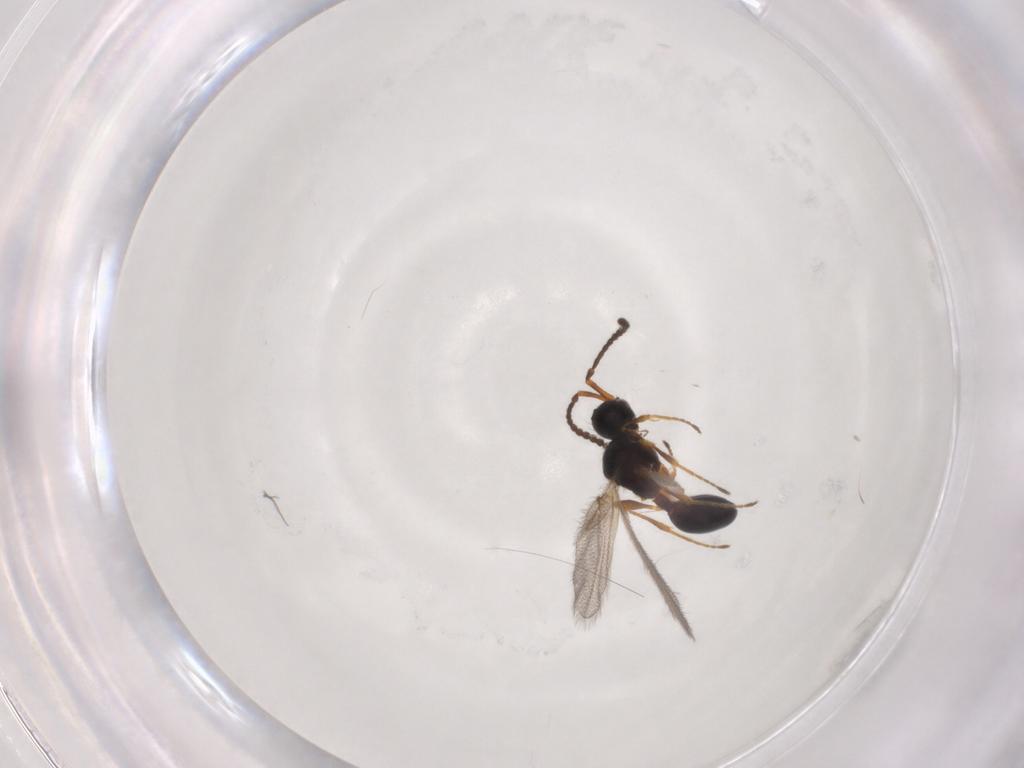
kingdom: Animalia
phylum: Arthropoda
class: Insecta
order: Hymenoptera
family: Diapriidae
